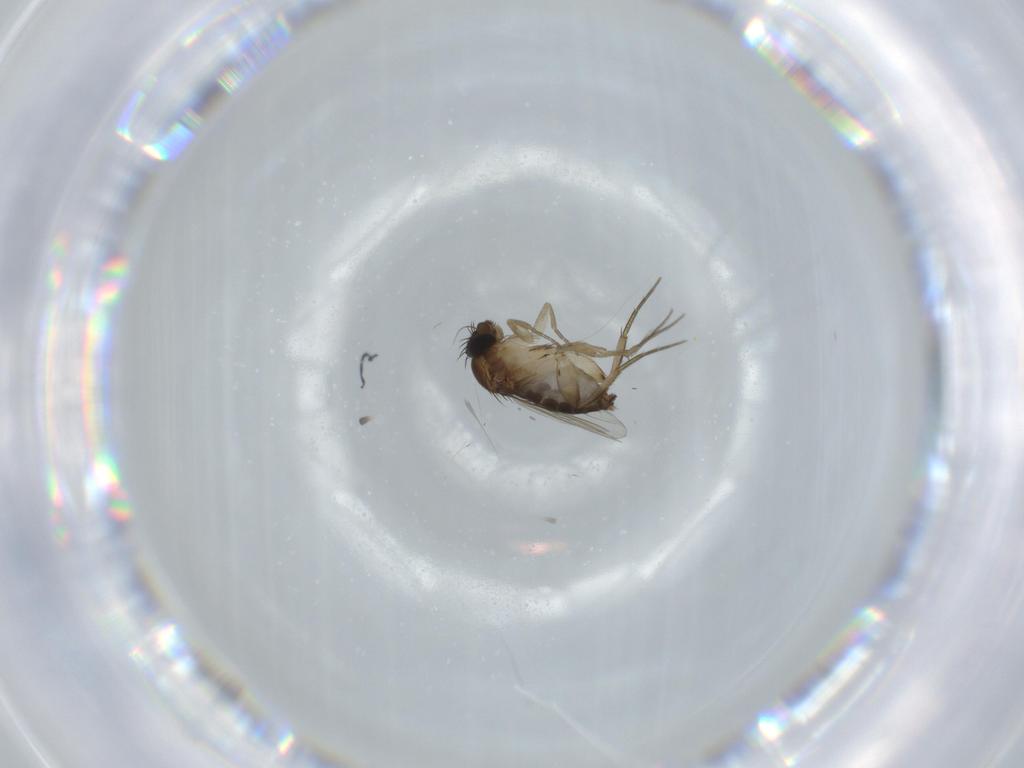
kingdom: Animalia
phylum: Arthropoda
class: Insecta
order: Diptera
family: Phoridae
